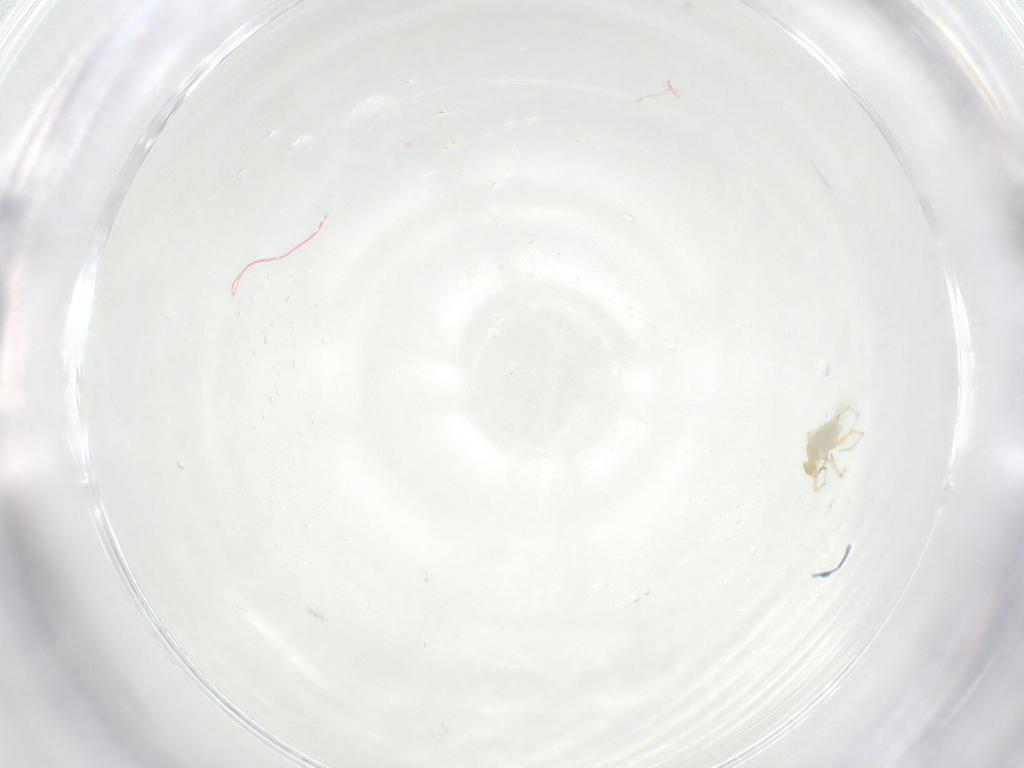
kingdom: Animalia
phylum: Arthropoda
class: Arachnida
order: Trombidiformes
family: Erythraeidae
